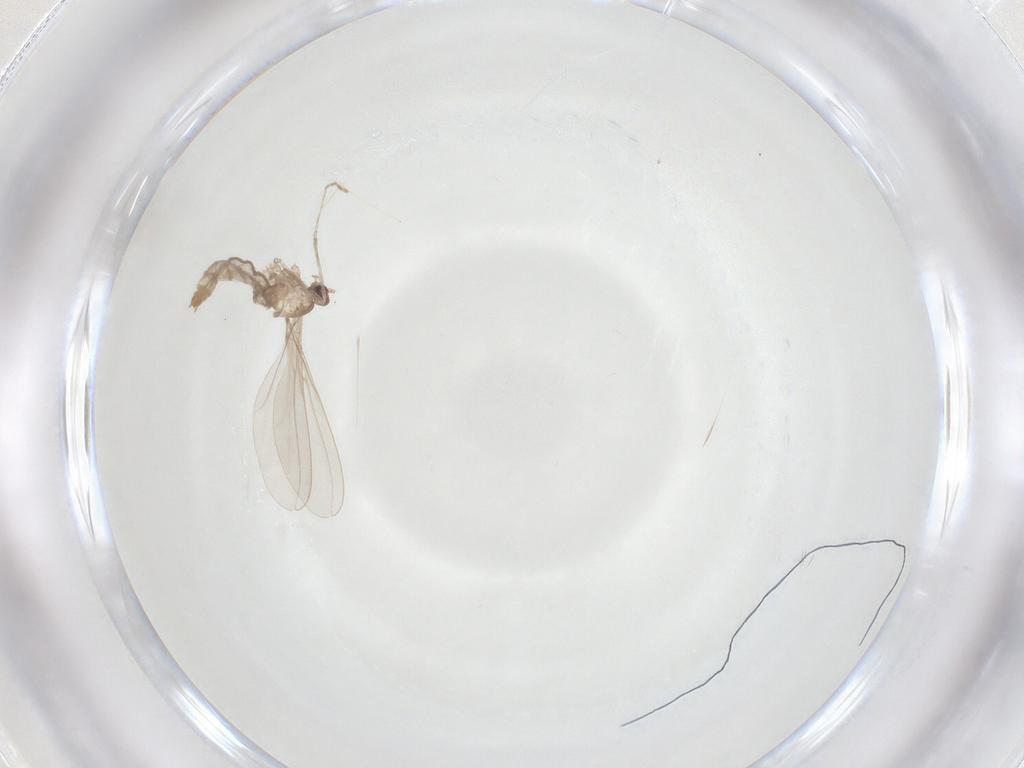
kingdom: Animalia
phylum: Arthropoda
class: Insecta
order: Diptera
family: Cecidomyiidae
